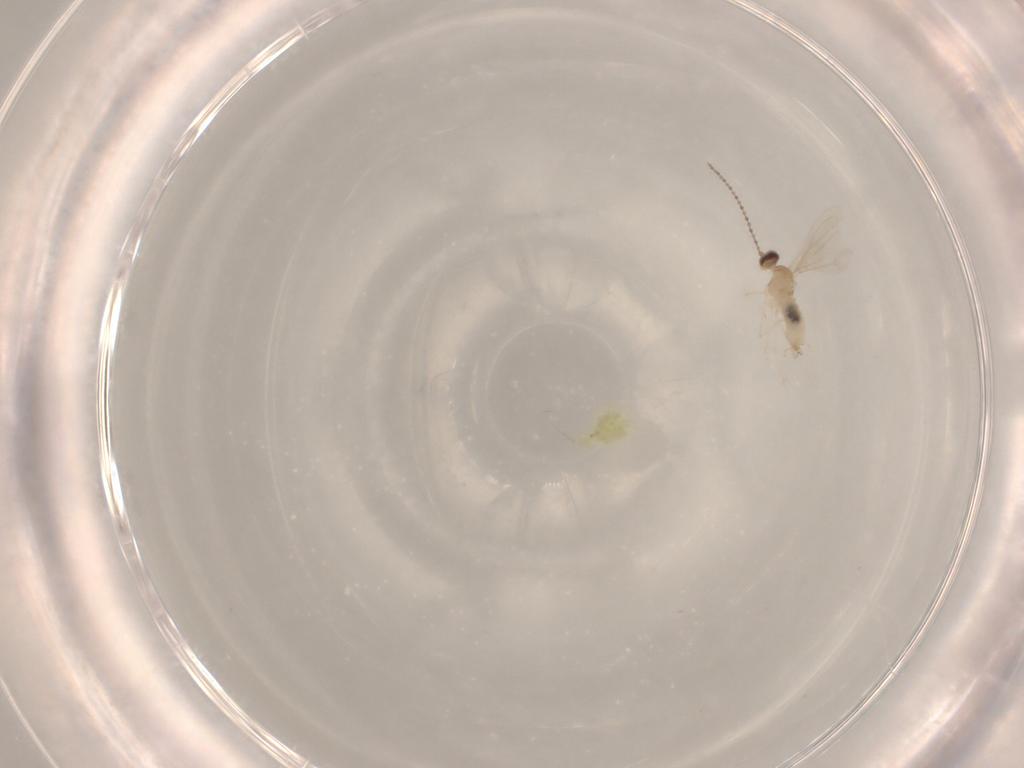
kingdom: Animalia
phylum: Arthropoda
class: Insecta
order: Diptera
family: Cecidomyiidae
